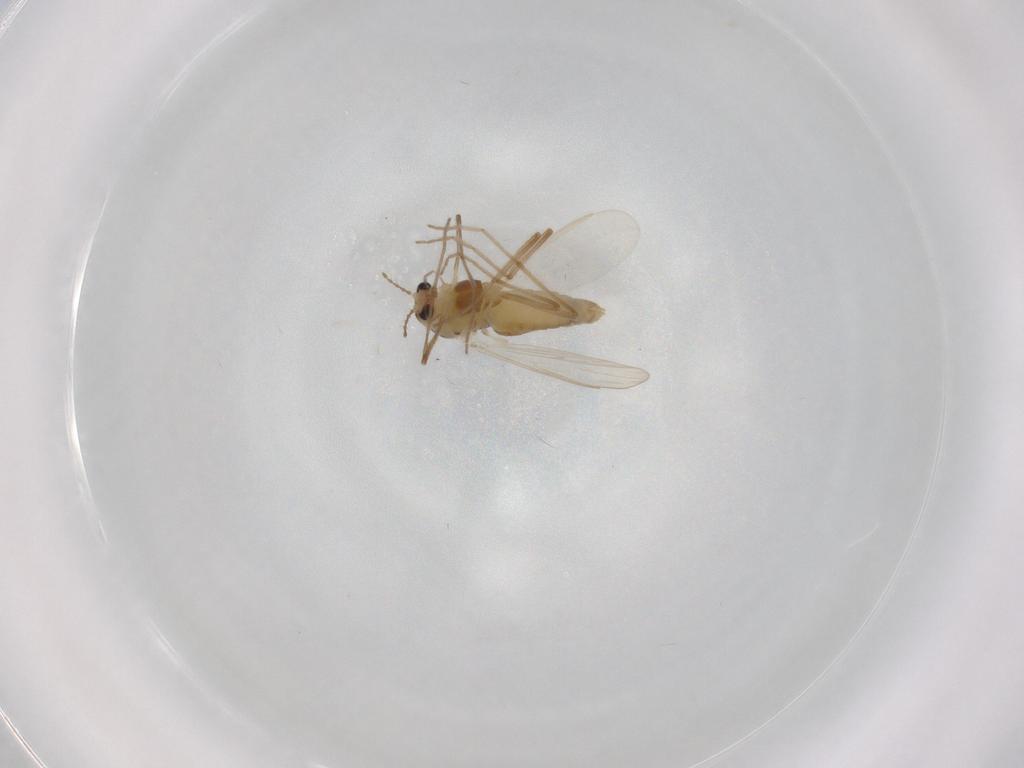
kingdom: Animalia
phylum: Arthropoda
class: Insecta
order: Diptera
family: Chironomidae
